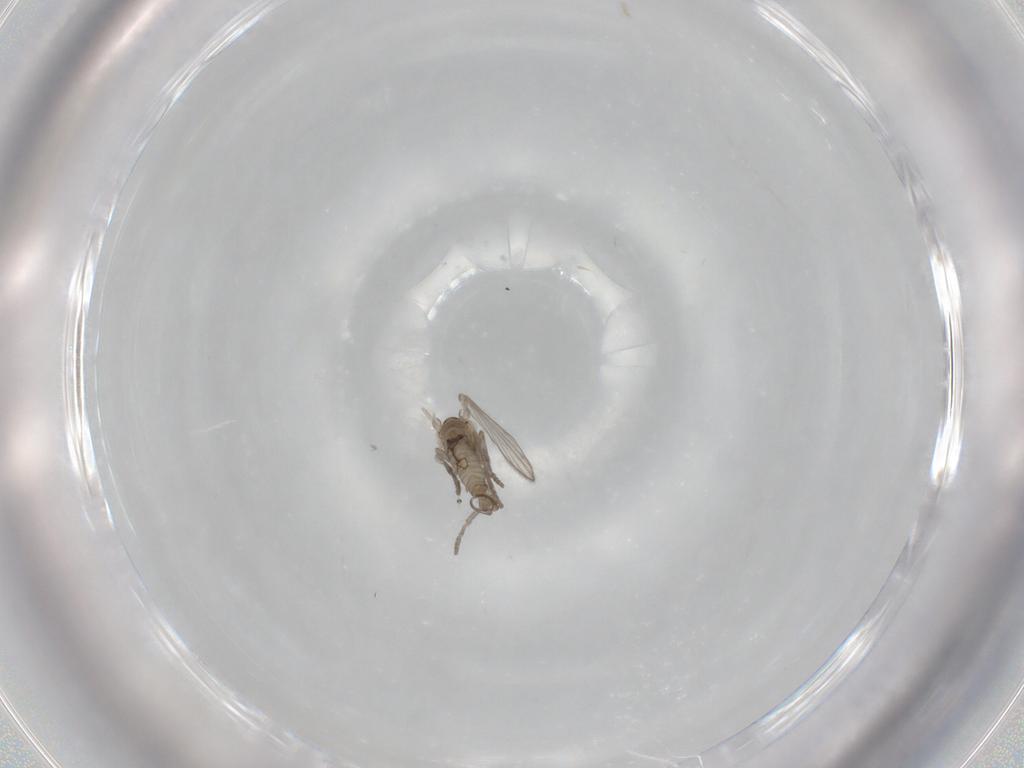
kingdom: Animalia
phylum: Arthropoda
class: Insecta
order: Diptera
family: Psychodidae
